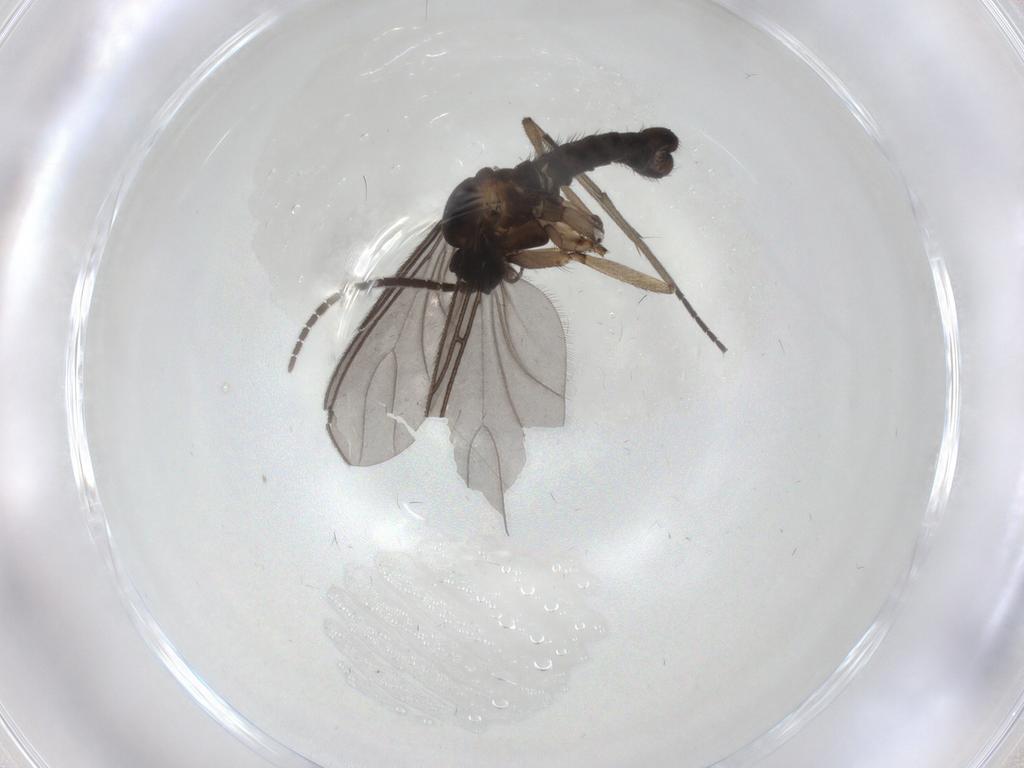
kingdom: Animalia
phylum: Arthropoda
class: Insecta
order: Diptera
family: Sciaridae
